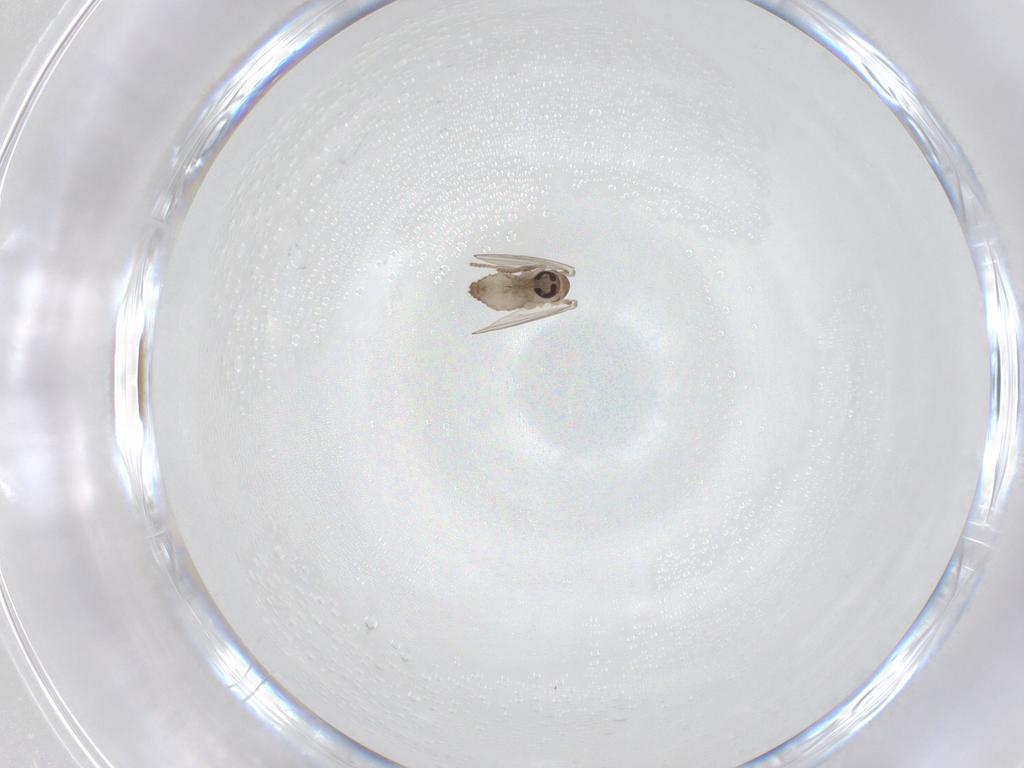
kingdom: Animalia
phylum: Arthropoda
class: Insecta
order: Diptera
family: Psychodidae
